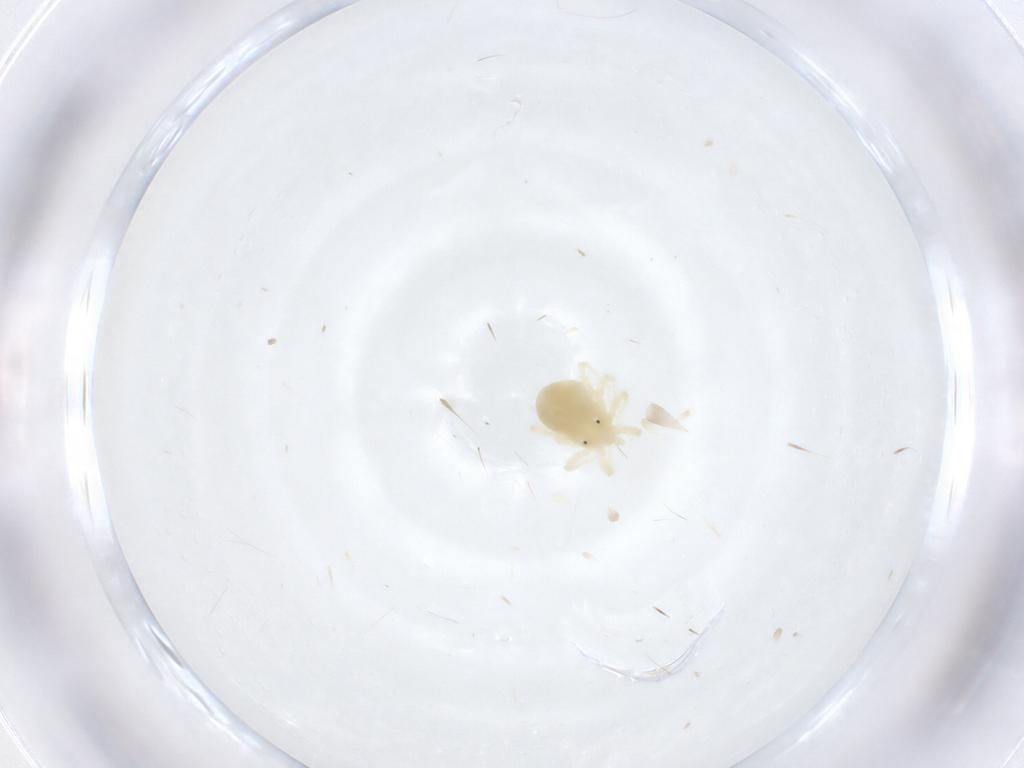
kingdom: Animalia
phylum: Arthropoda
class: Arachnida
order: Trombidiformes
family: Anystidae
